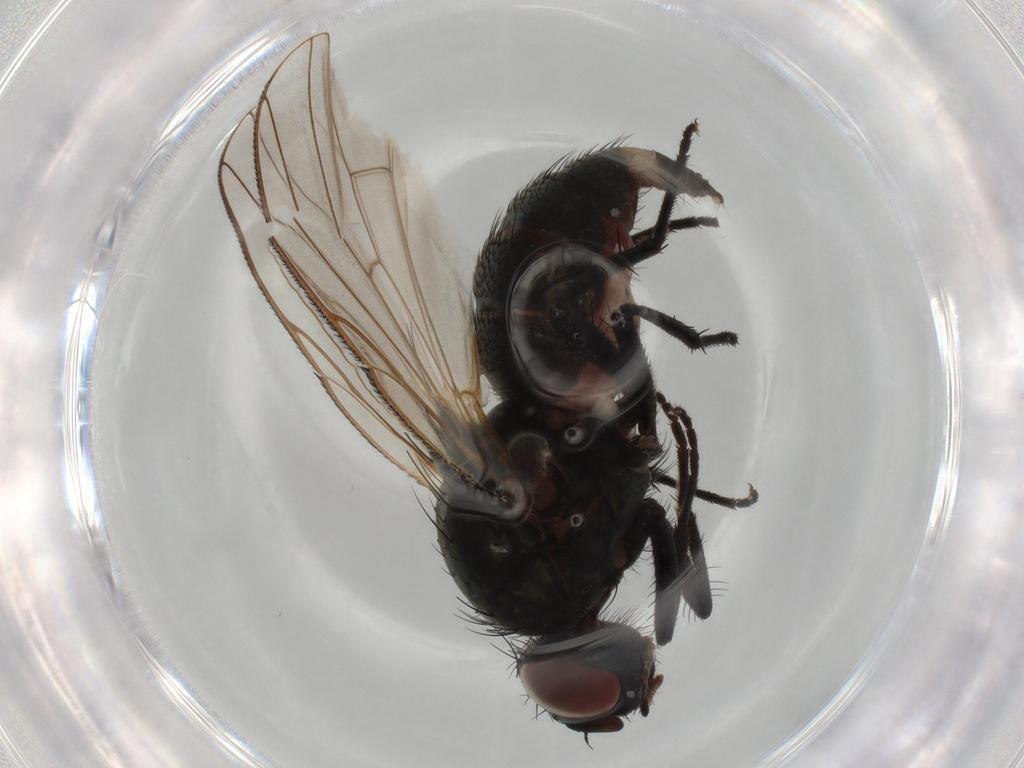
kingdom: Animalia
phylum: Arthropoda
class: Insecta
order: Diptera
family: Anthomyiidae
